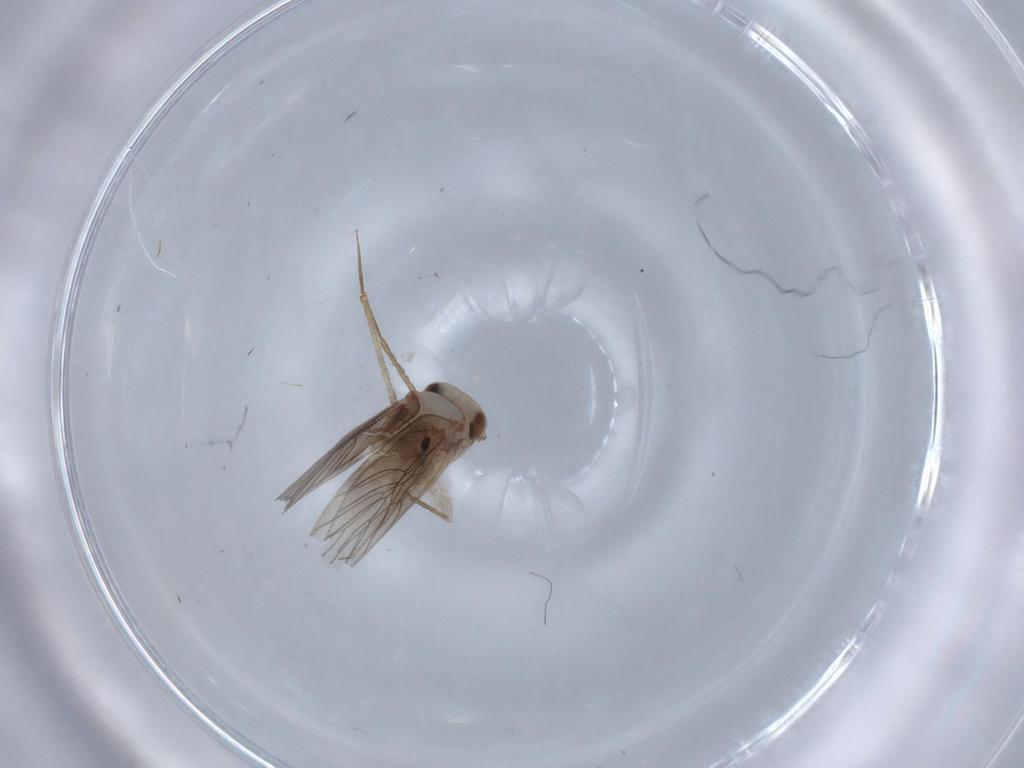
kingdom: Animalia
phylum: Arthropoda
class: Insecta
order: Psocodea
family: Lepidopsocidae
